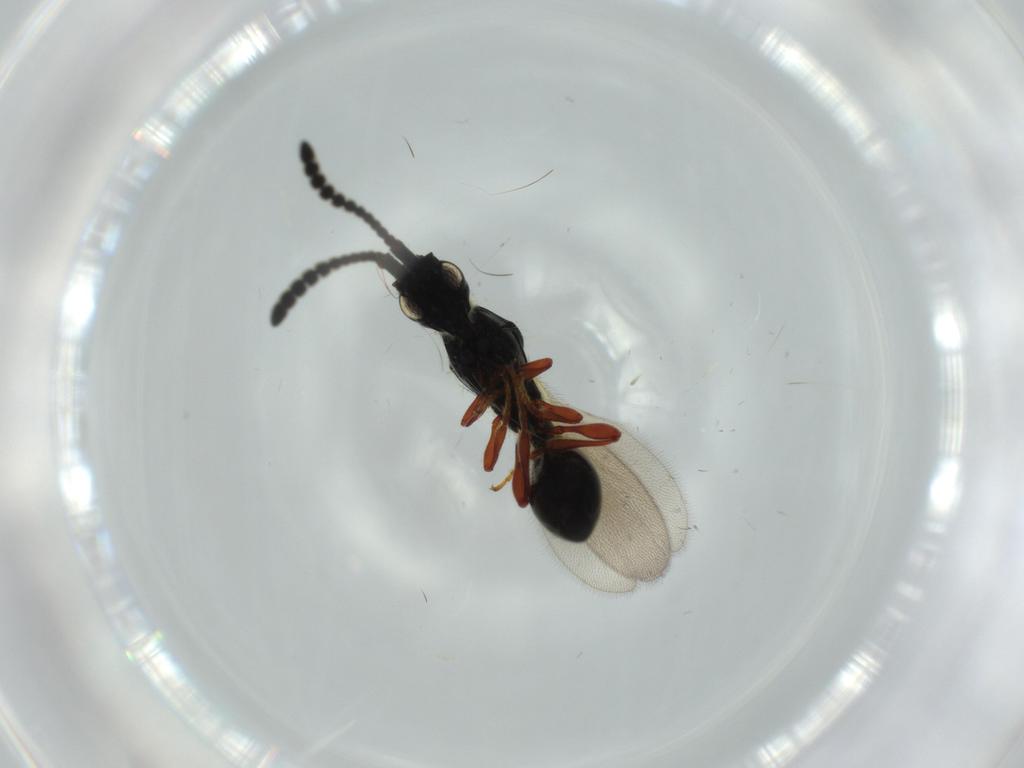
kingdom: Animalia
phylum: Arthropoda
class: Insecta
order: Hymenoptera
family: Diapriidae
